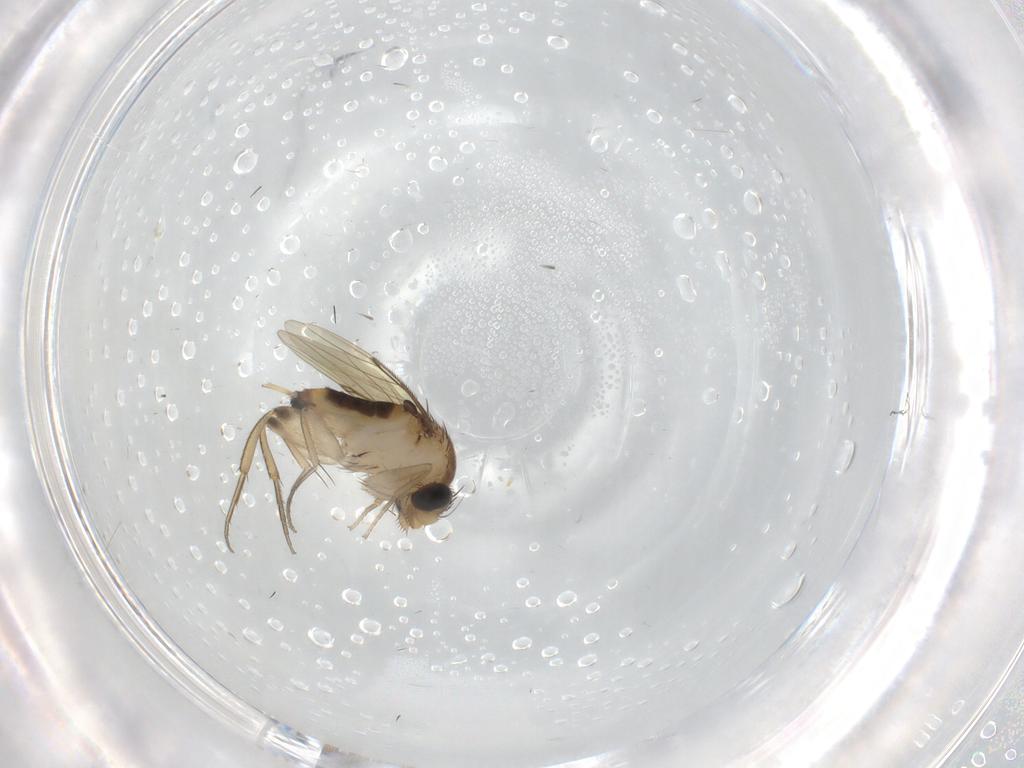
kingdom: Animalia
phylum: Arthropoda
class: Insecta
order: Diptera
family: Phoridae
